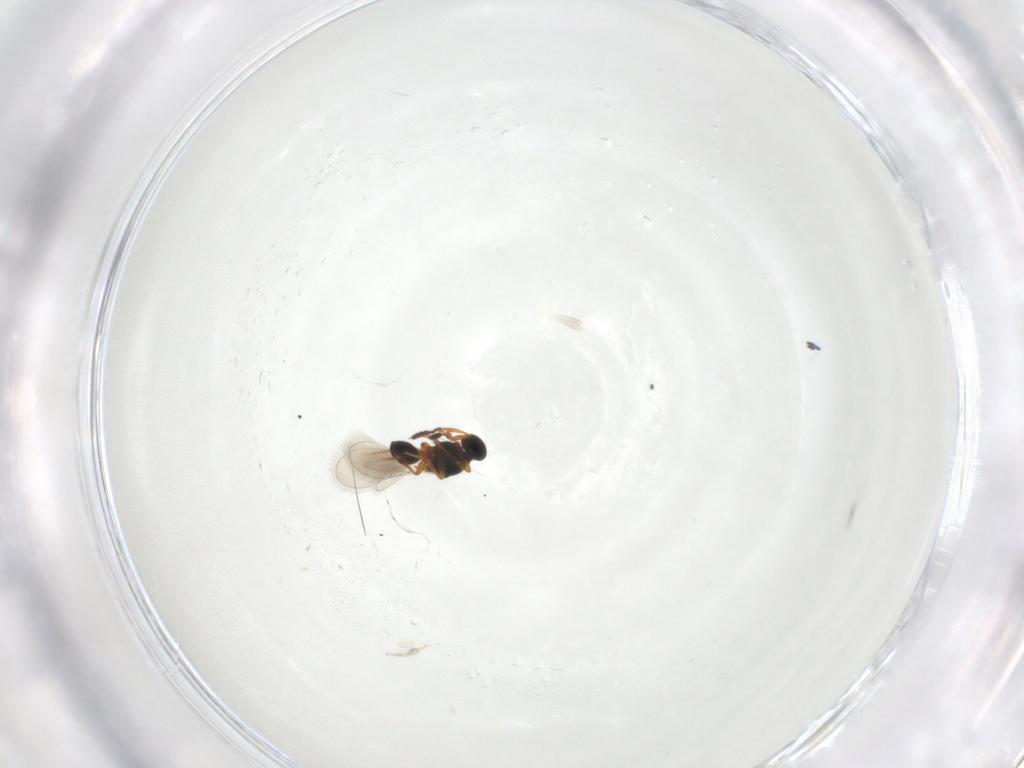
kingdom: Animalia
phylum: Arthropoda
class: Insecta
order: Hymenoptera
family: Platygastridae
